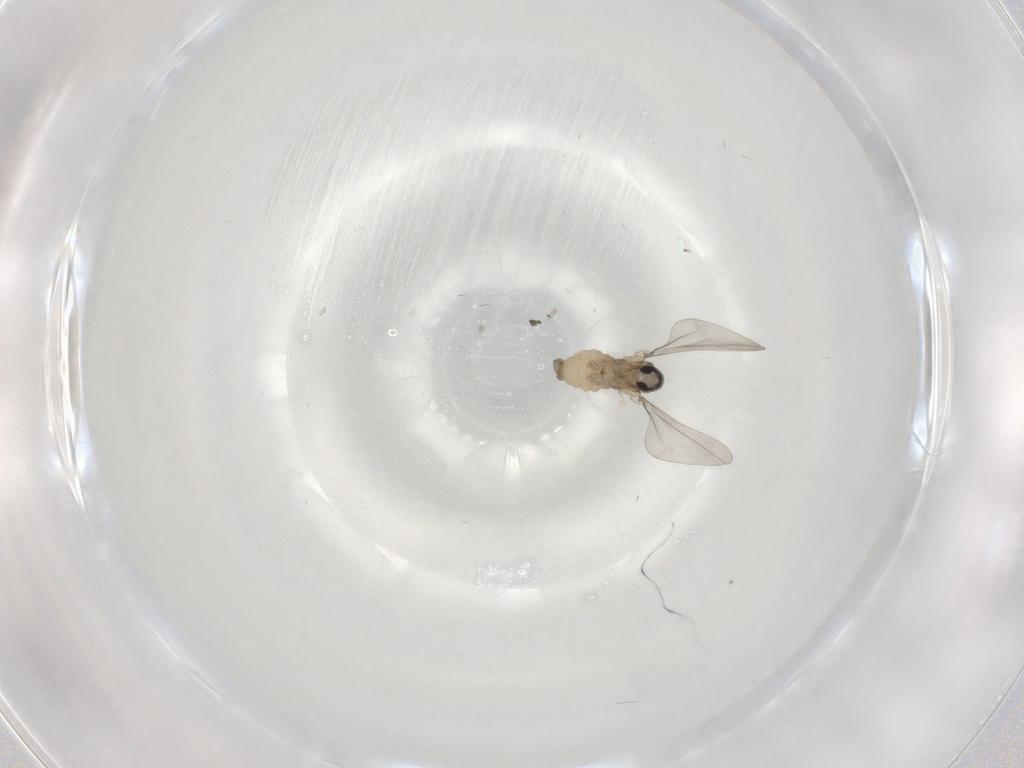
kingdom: Animalia
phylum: Arthropoda
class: Insecta
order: Diptera
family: Cecidomyiidae
